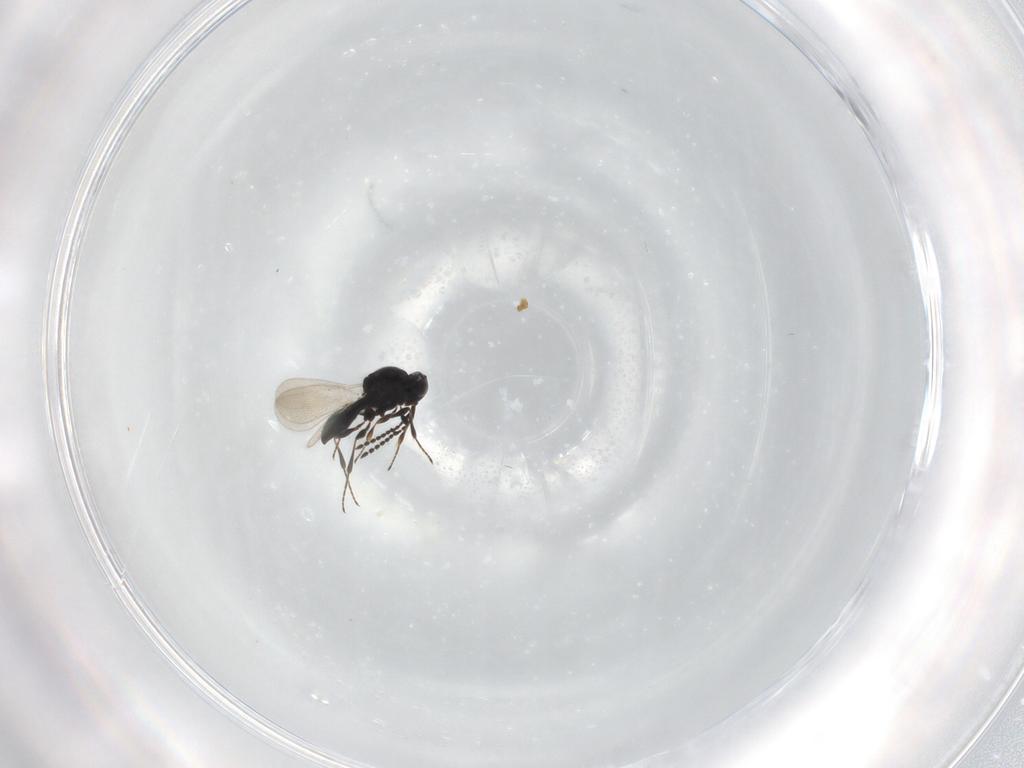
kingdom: Animalia
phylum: Arthropoda
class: Insecta
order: Hymenoptera
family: Platygastridae
